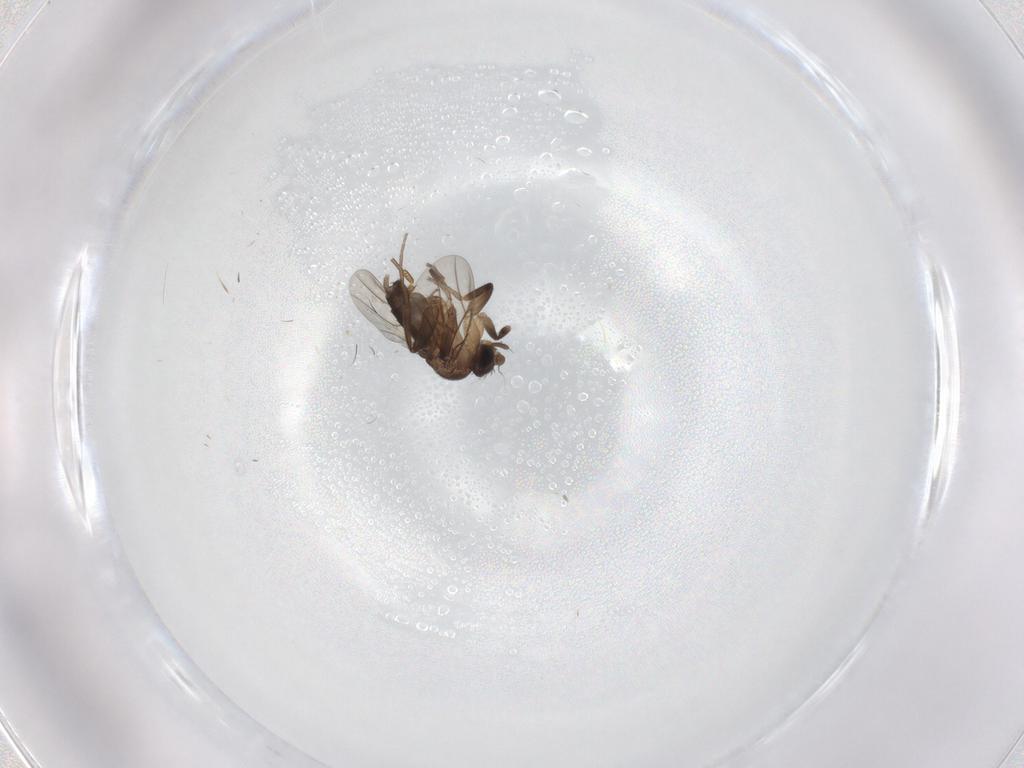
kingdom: Animalia
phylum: Arthropoda
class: Insecta
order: Diptera
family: Phoridae
